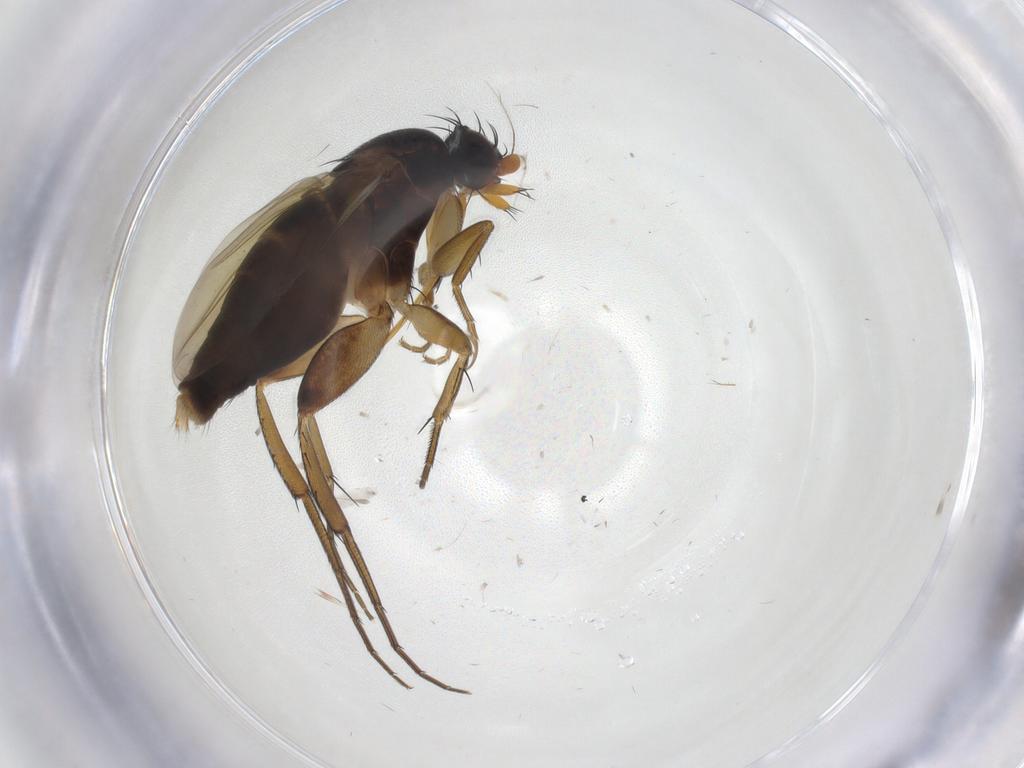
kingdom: Animalia
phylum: Arthropoda
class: Insecta
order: Diptera
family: Phoridae
